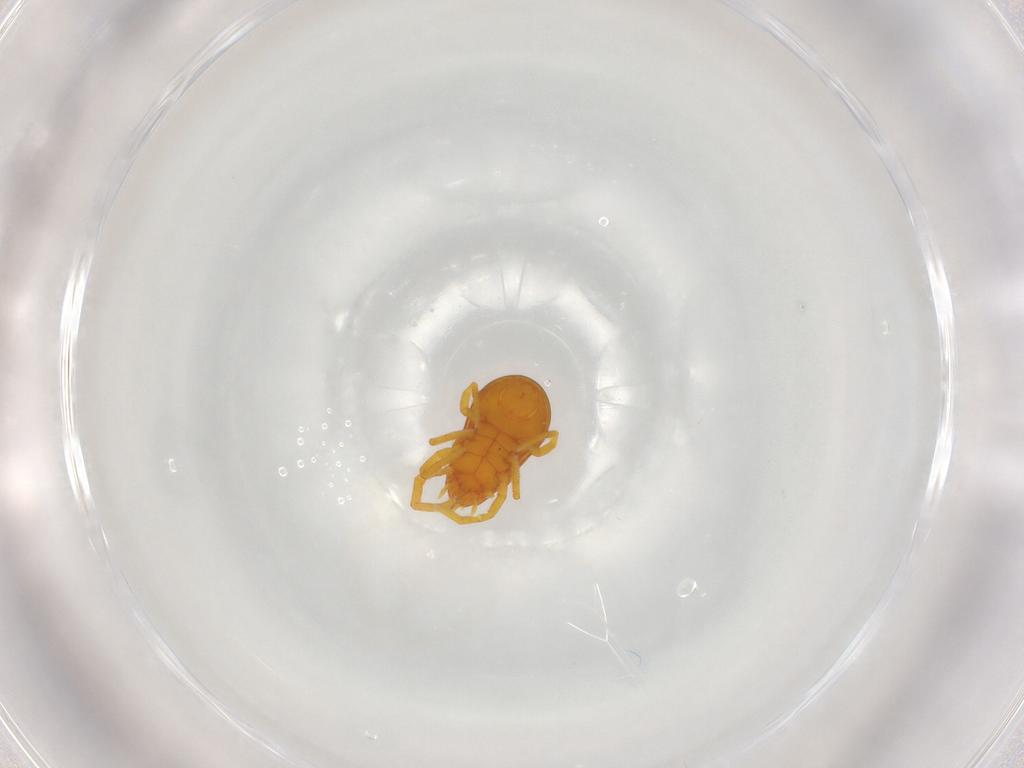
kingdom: Animalia
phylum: Arthropoda
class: Arachnida
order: Trombidiformes
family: Labidostommidae
